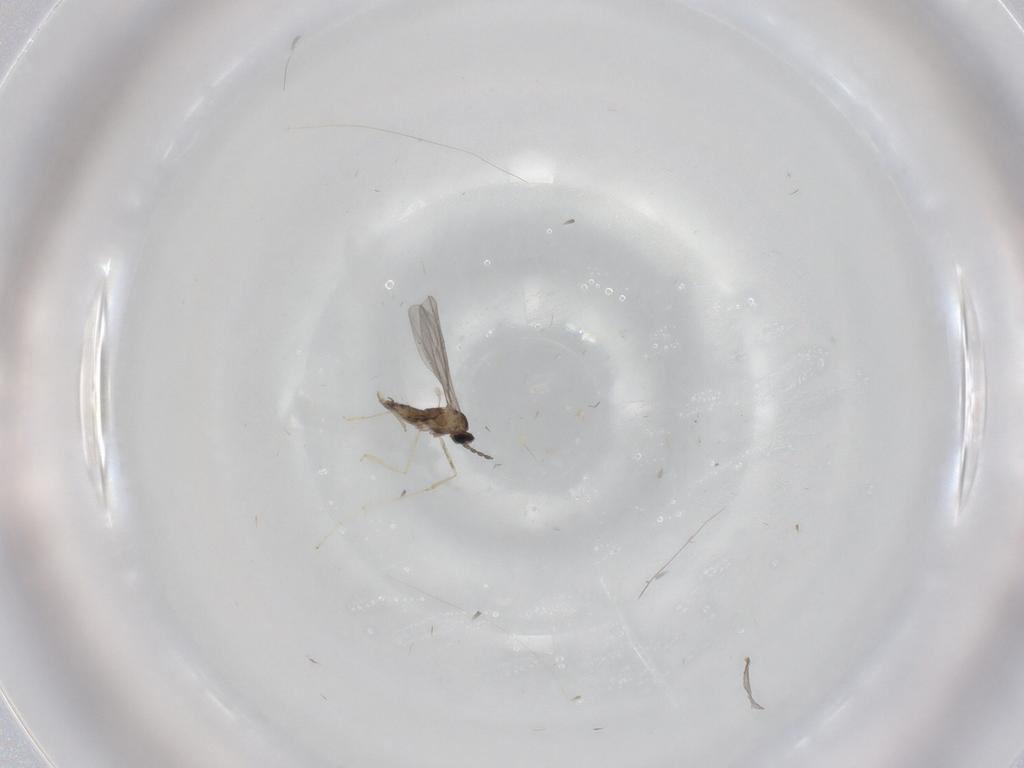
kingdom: Animalia
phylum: Arthropoda
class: Insecta
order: Diptera
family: Cecidomyiidae
